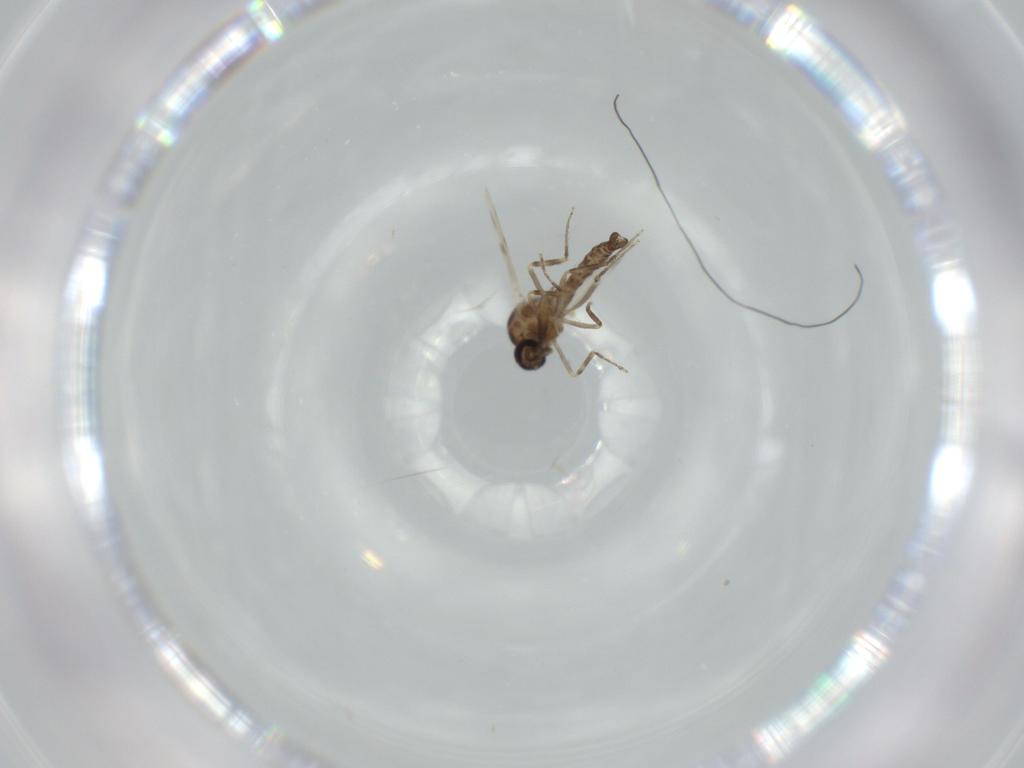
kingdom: Animalia
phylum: Arthropoda
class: Insecta
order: Diptera
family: Ceratopogonidae
